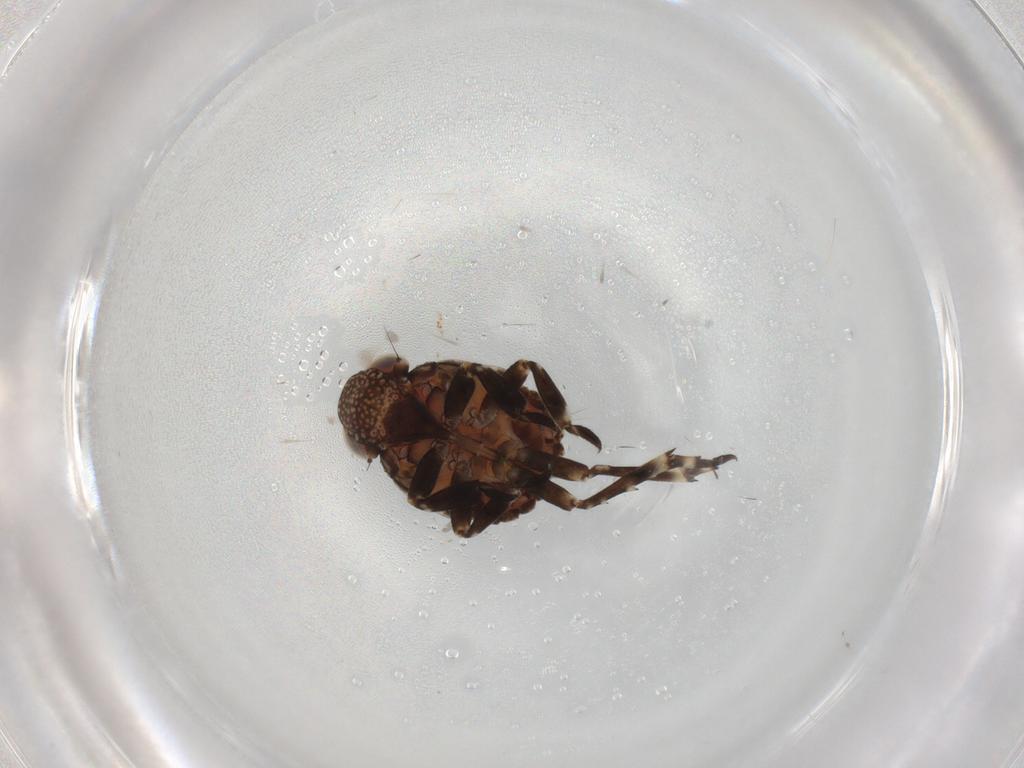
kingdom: Animalia
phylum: Arthropoda
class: Insecta
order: Hemiptera
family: Issidae
